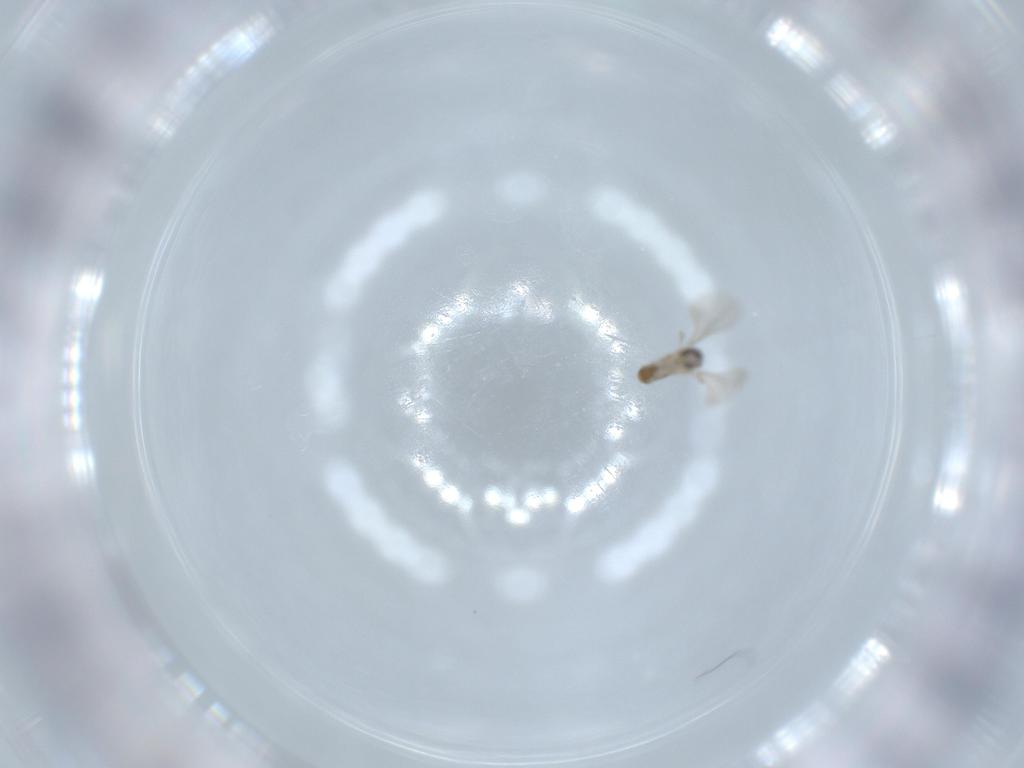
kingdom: Animalia
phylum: Arthropoda
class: Insecta
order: Diptera
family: Cecidomyiidae
